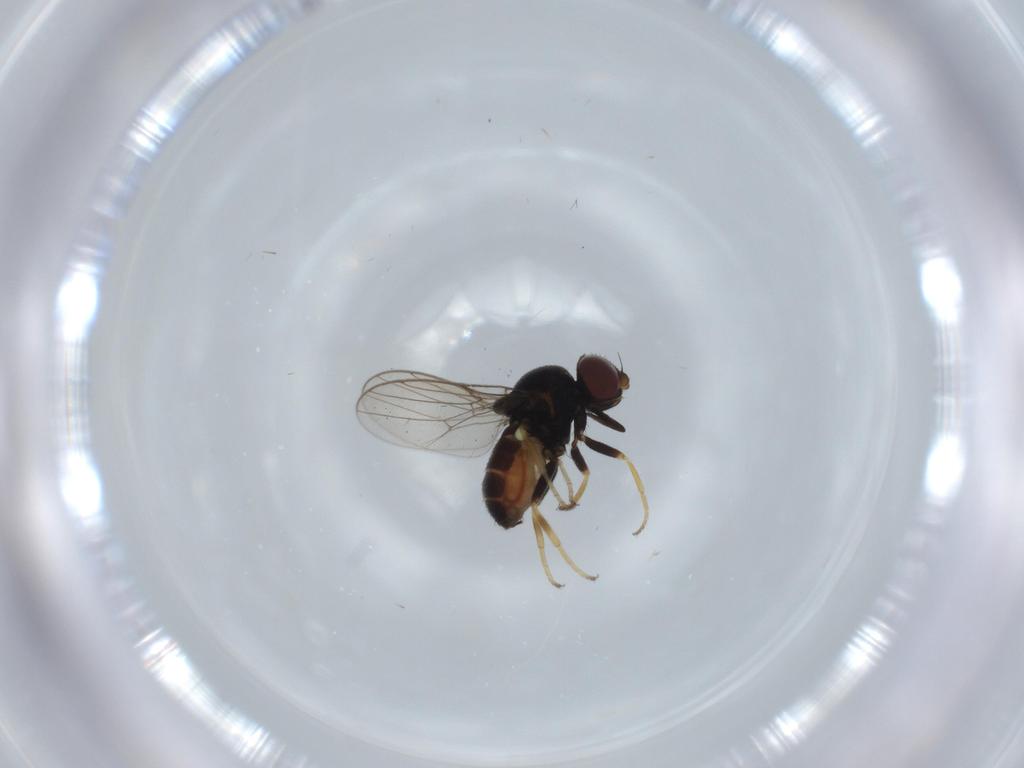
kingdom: Animalia
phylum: Arthropoda
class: Insecta
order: Diptera
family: Chloropidae
